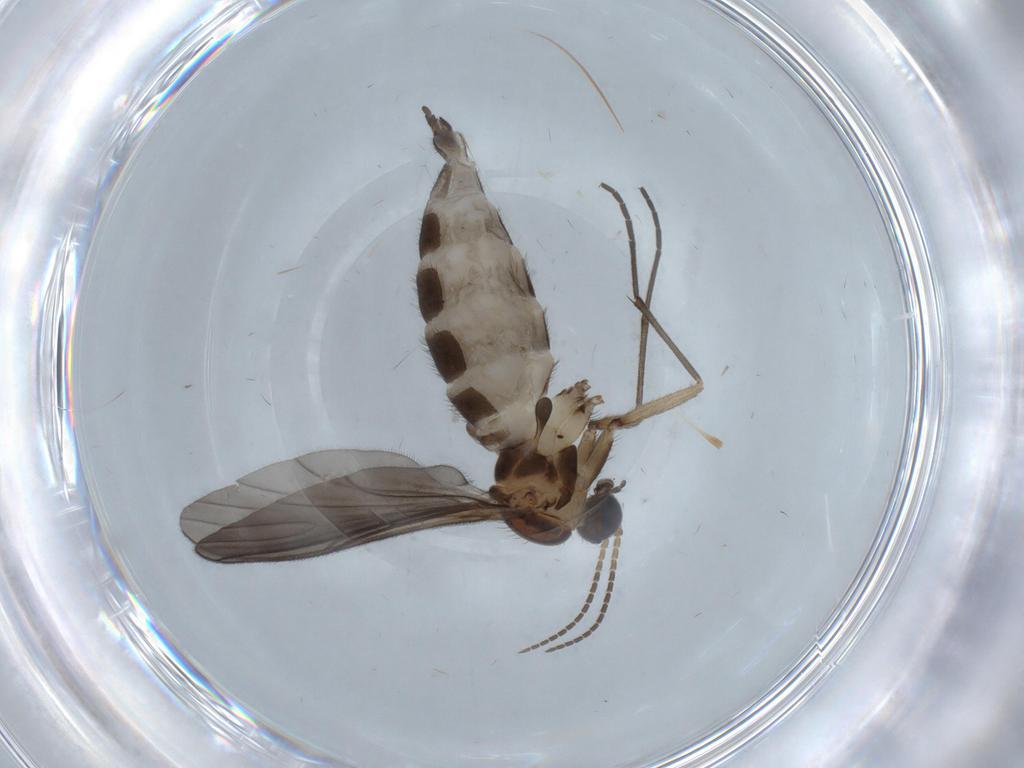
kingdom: Animalia
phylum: Arthropoda
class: Insecta
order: Diptera
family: Sciaridae
